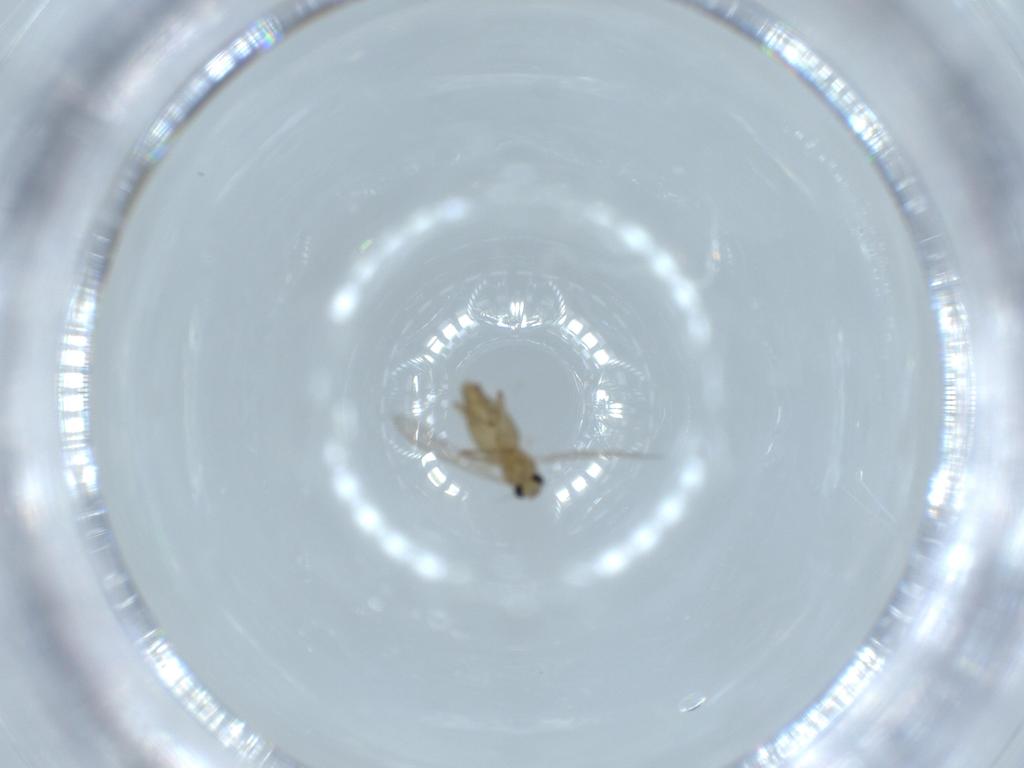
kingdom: Animalia
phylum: Arthropoda
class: Insecta
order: Diptera
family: Chironomidae
